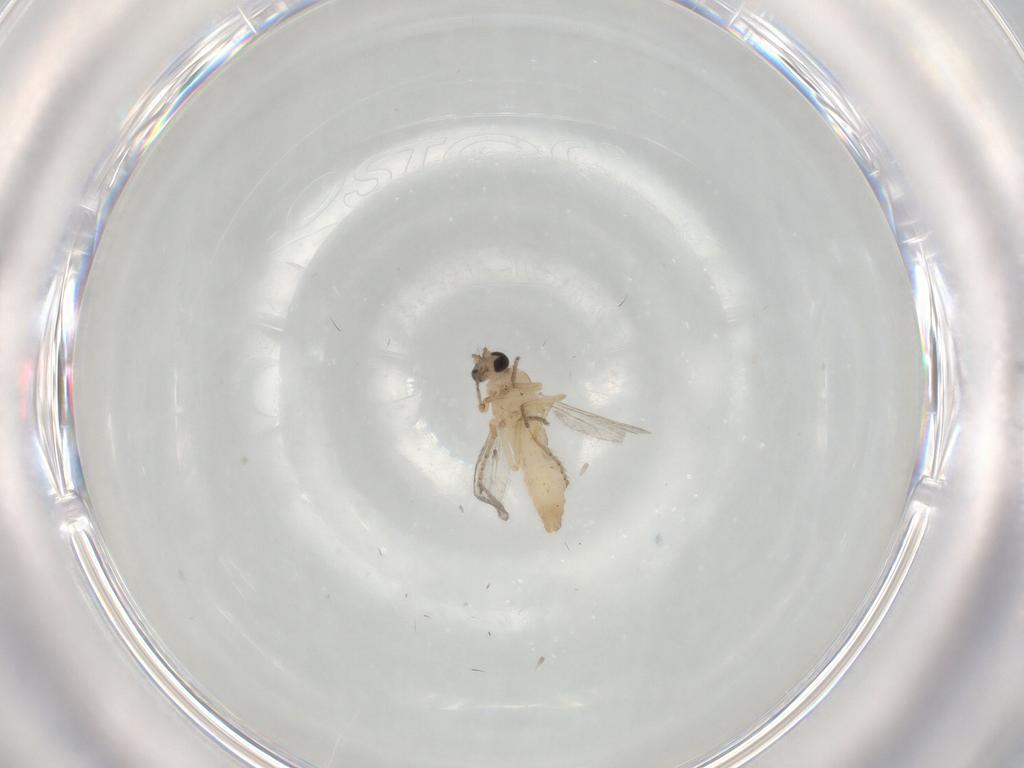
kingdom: Animalia
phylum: Arthropoda
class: Insecta
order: Diptera
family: Ceratopogonidae
